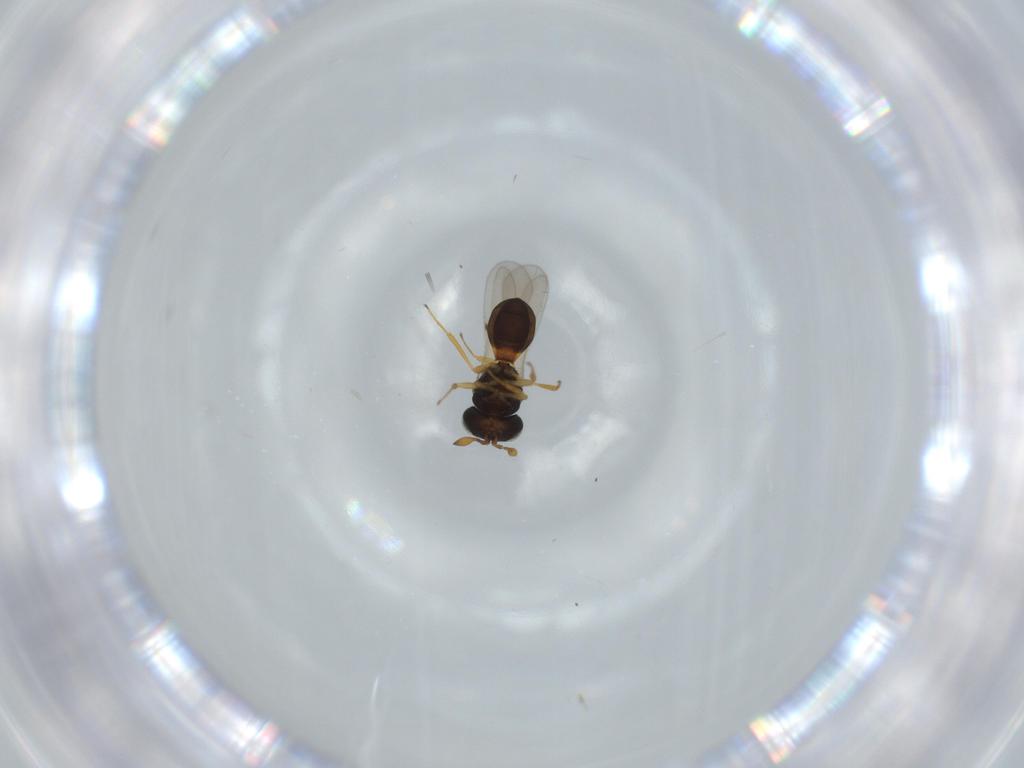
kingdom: Animalia
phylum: Arthropoda
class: Insecta
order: Hymenoptera
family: Scelionidae
